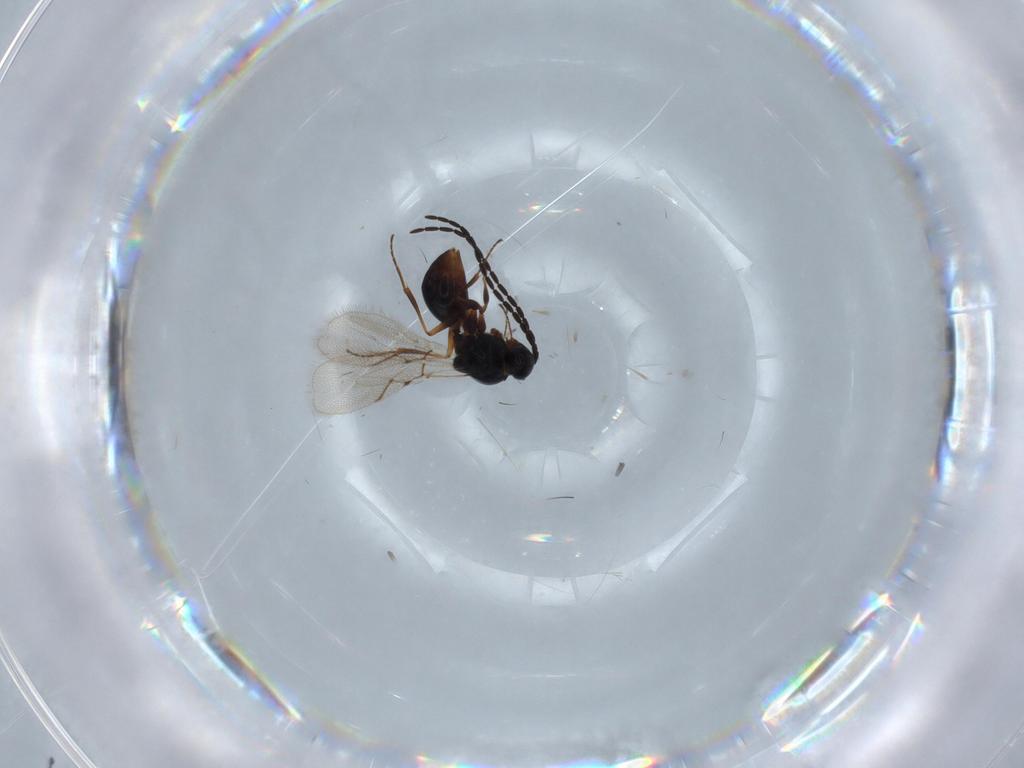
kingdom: Animalia
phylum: Arthropoda
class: Insecta
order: Hymenoptera
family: Figitidae
